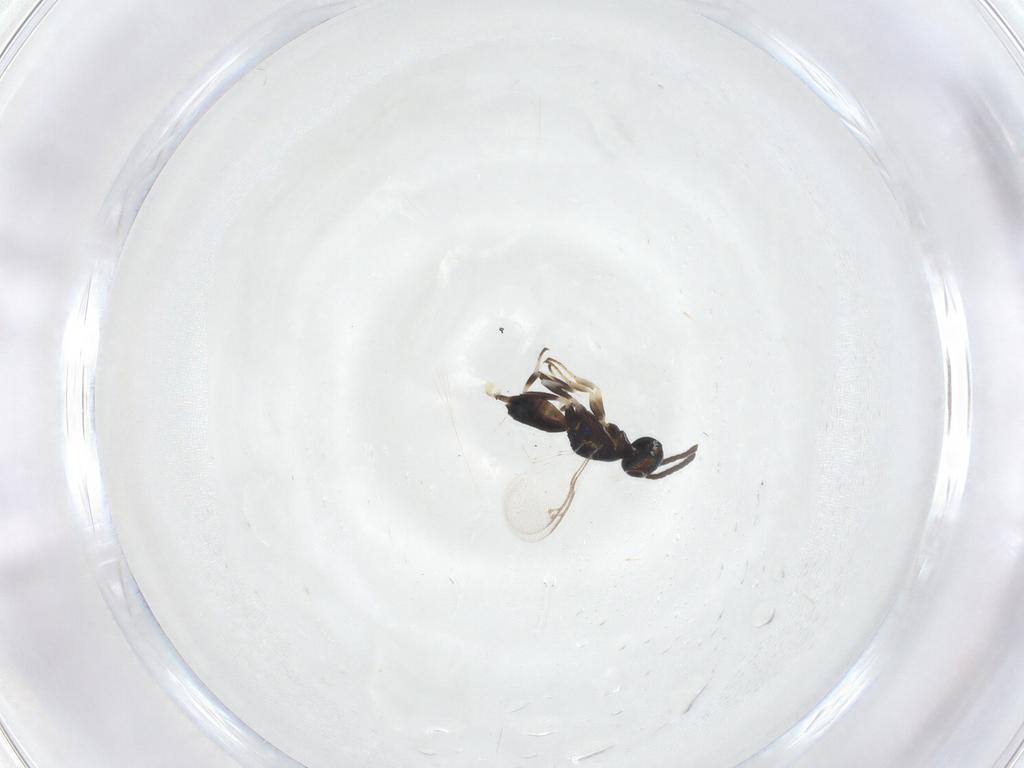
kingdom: Animalia
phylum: Arthropoda
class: Insecta
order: Hymenoptera
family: Eupelmidae
